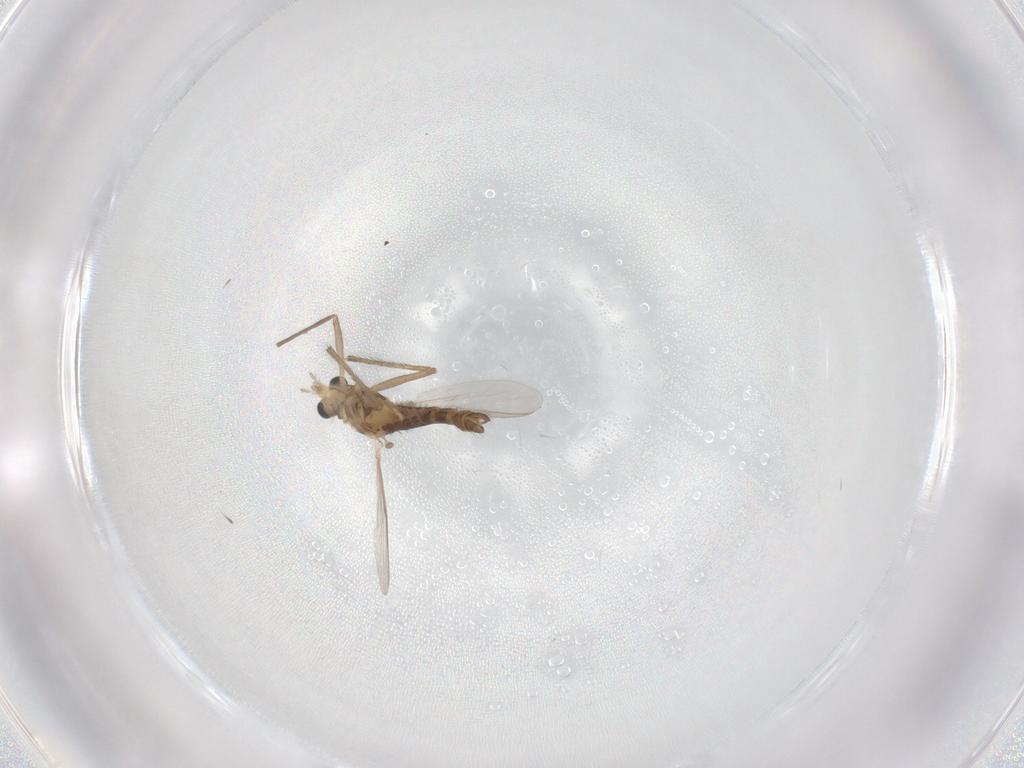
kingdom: Animalia
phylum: Arthropoda
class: Insecta
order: Diptera
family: Chironomidae
